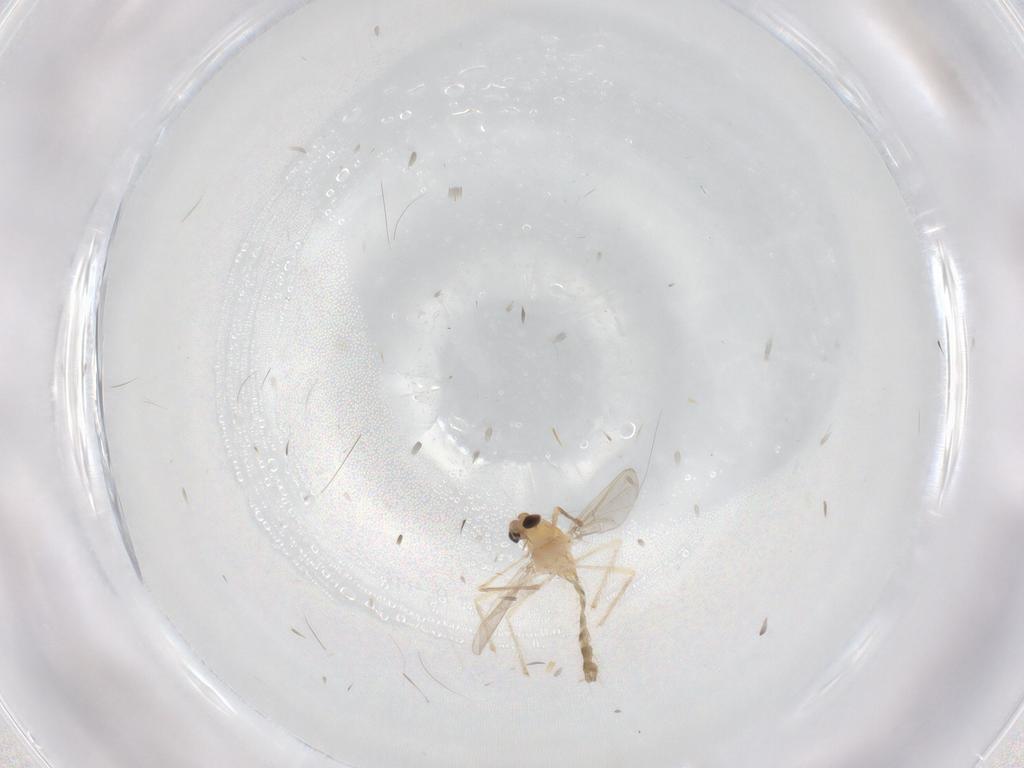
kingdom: Animalia
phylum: Arthropoda
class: Insecta
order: Diptera
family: Chironomidae
